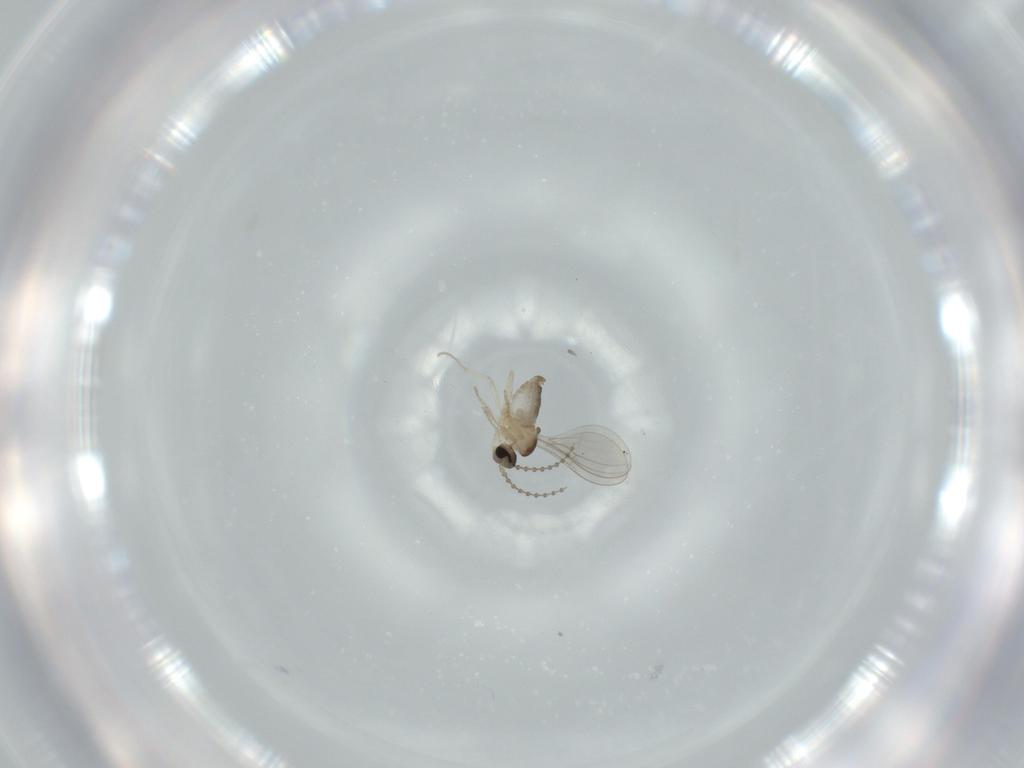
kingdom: Animalia
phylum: Arthropoda
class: Insecta
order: Diptera
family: Cecidomyiidae
